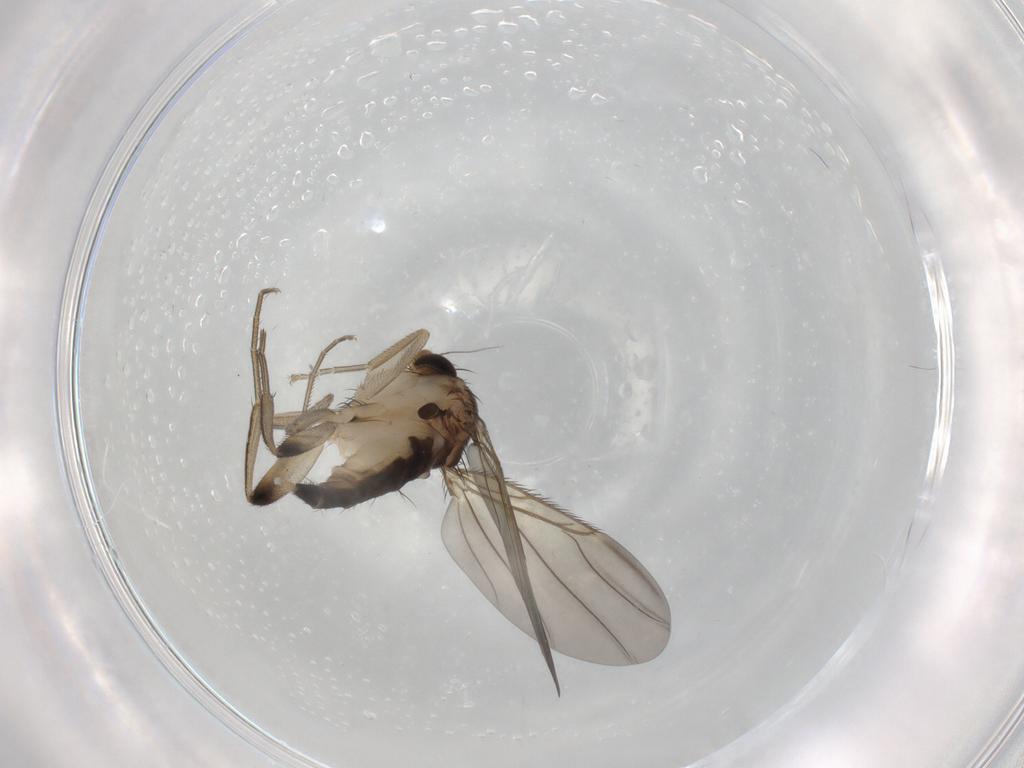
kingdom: Animalia
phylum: Arthropoda
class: Insecta
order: Diptera
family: Phoridae
